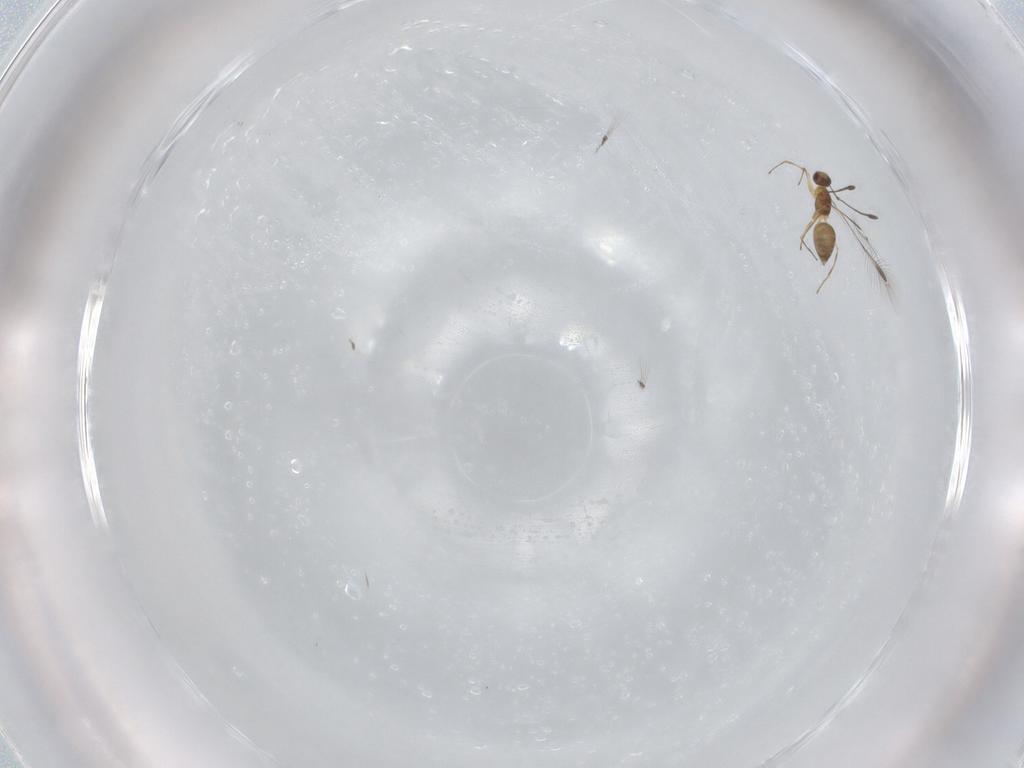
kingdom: Animalia
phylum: Arthropoda
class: Insecta
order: Hymenoptera
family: Mymaridae
